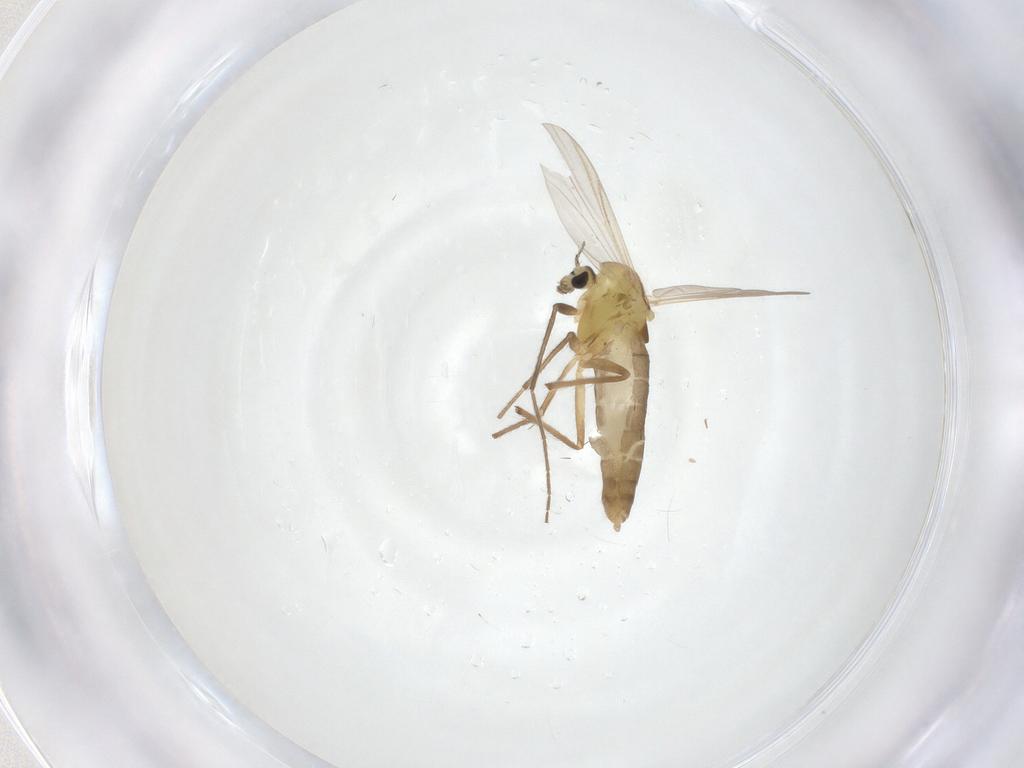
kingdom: Animalia
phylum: Arthropoda
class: Insecta
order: Diptera
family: Chironomidae
